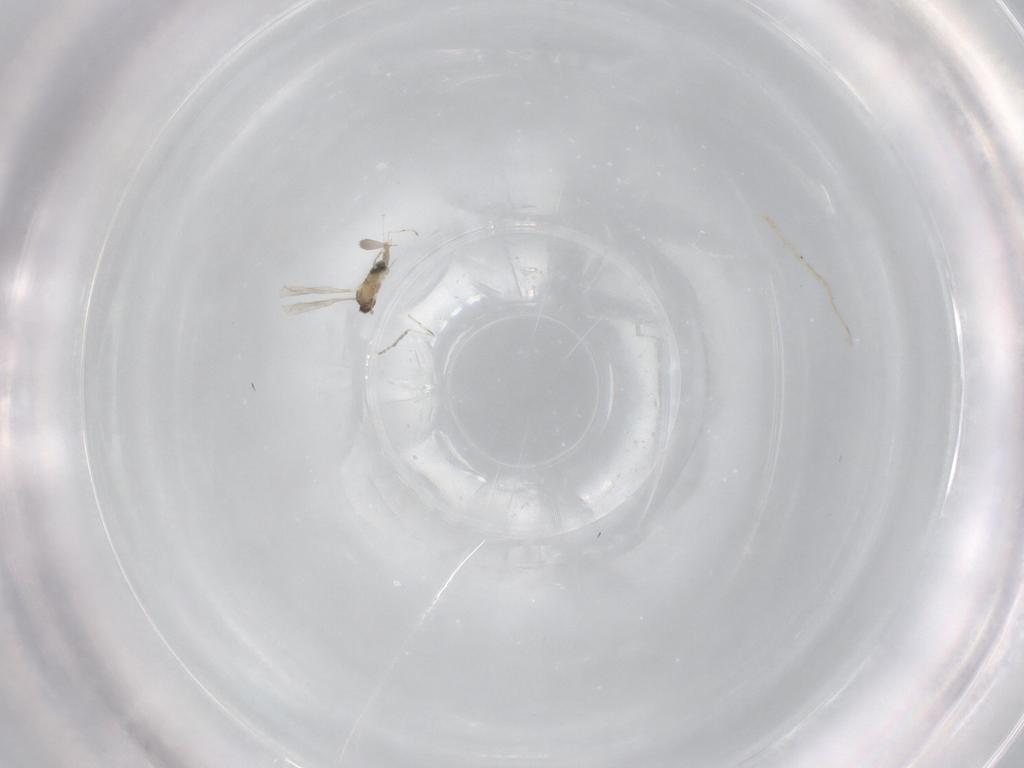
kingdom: Animalia
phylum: Arthropoda
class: Insecta
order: Diptera
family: Cecidomyiidae
